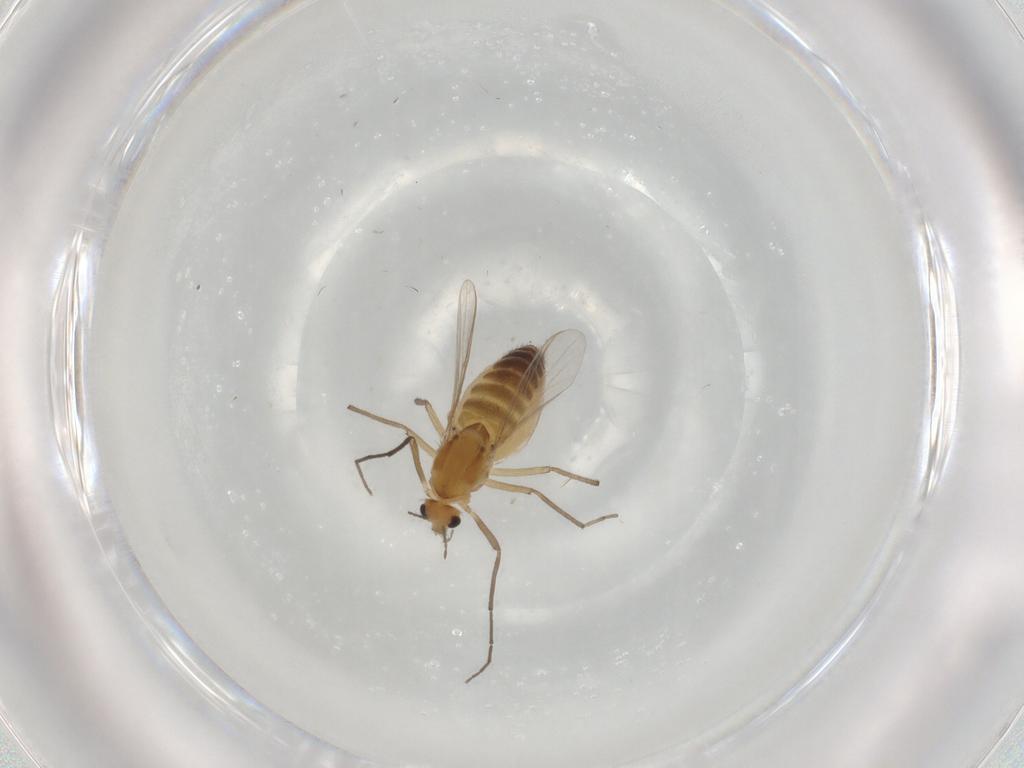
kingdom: Animalia
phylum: Arthropoda
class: Insecta
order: Diptera
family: Chironomidae
